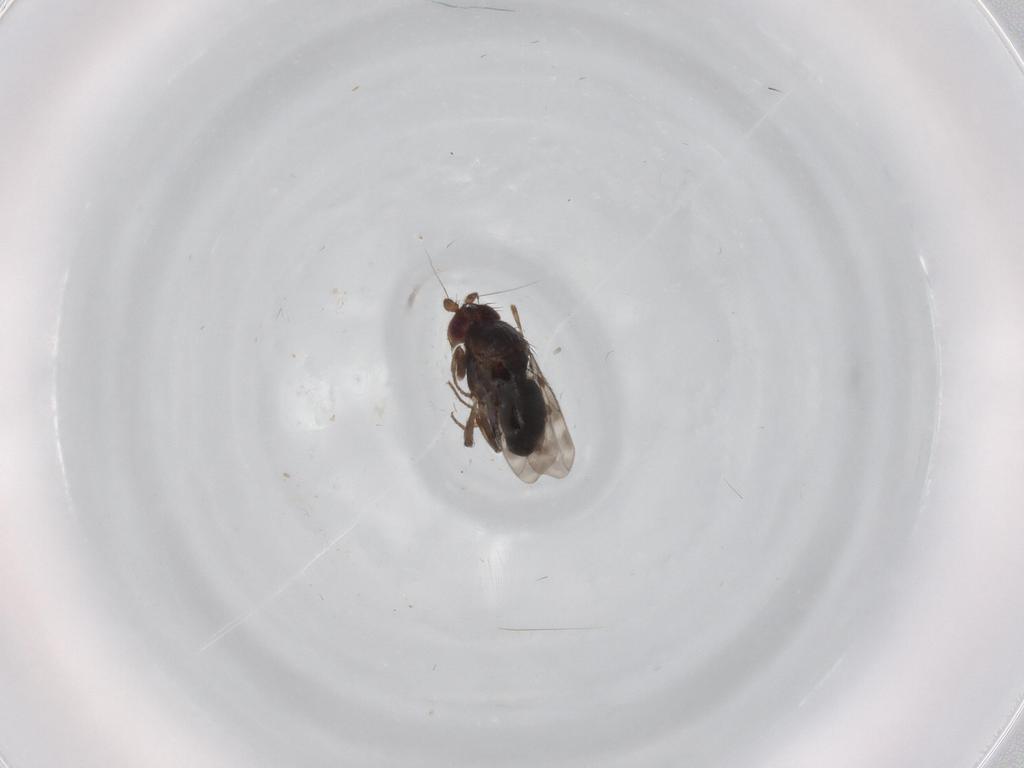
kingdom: Animalia
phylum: Arthropoda
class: Insecta
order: Diptera
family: Sphaeroceridae
